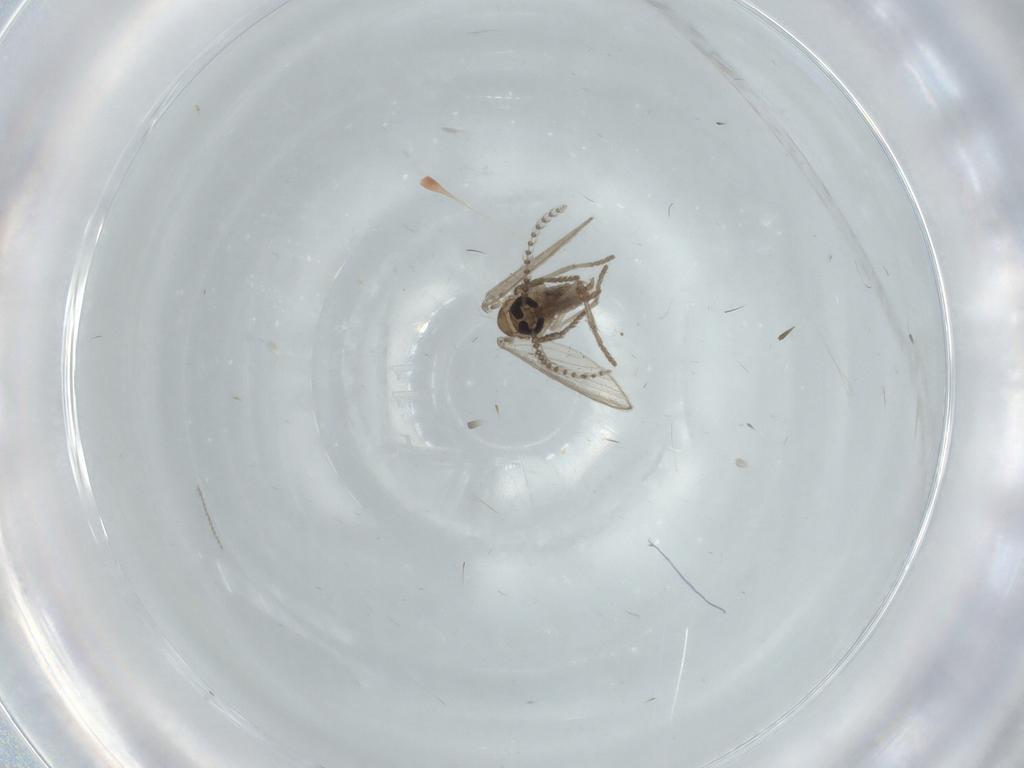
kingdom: Animalia
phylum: Arthropoda
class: Insecta
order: Diptera
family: Psychodidae
